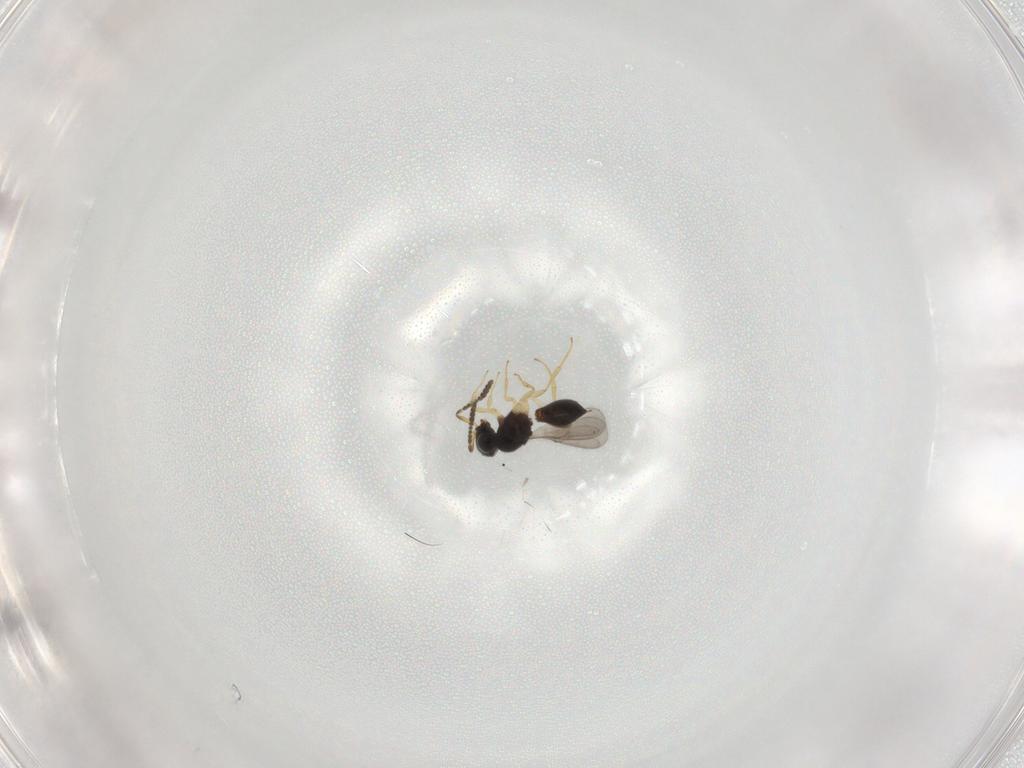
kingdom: Animalia
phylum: Arthropoda
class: Insecta
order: Hymenoptera
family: Scelionidae
